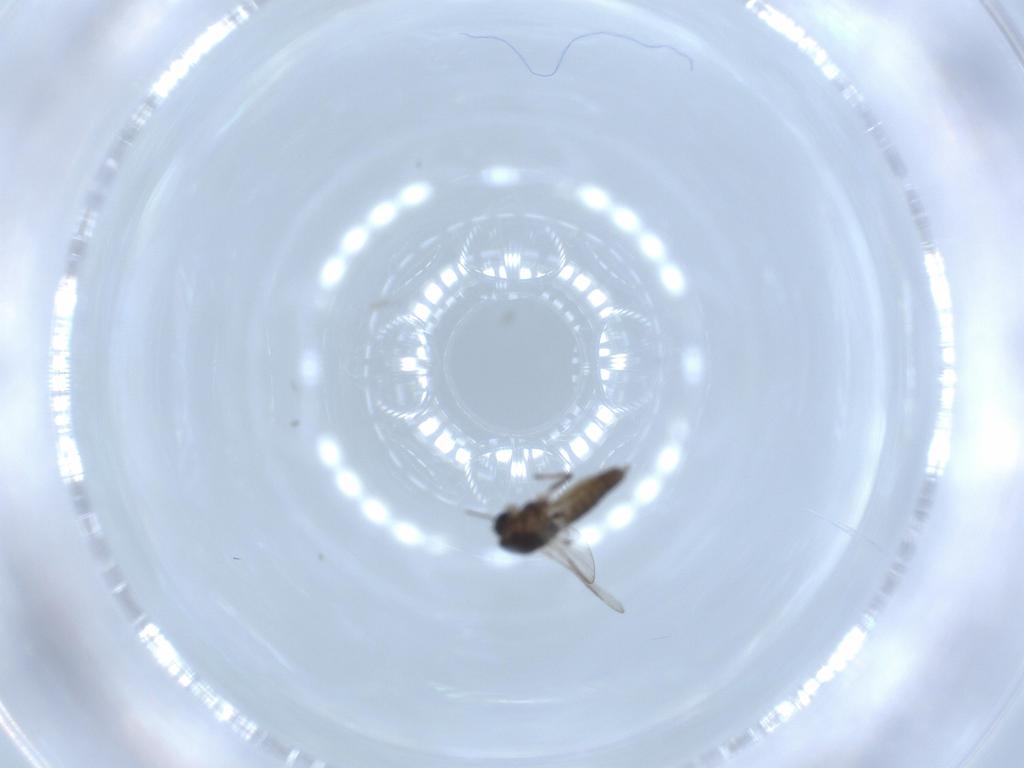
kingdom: Animalia
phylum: Arthropoda
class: Insecta
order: Diptera
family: Chironomidae
